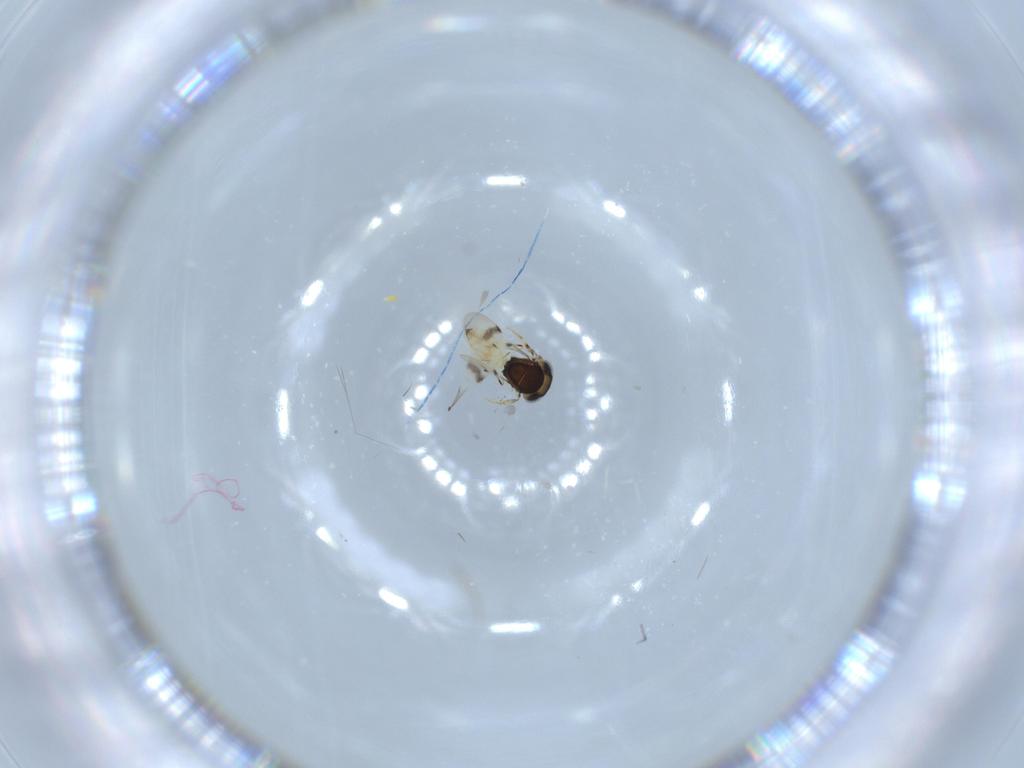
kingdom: Animalia
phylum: Arthropoda
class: Insecta
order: Hymenoptera
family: Scelionidae
